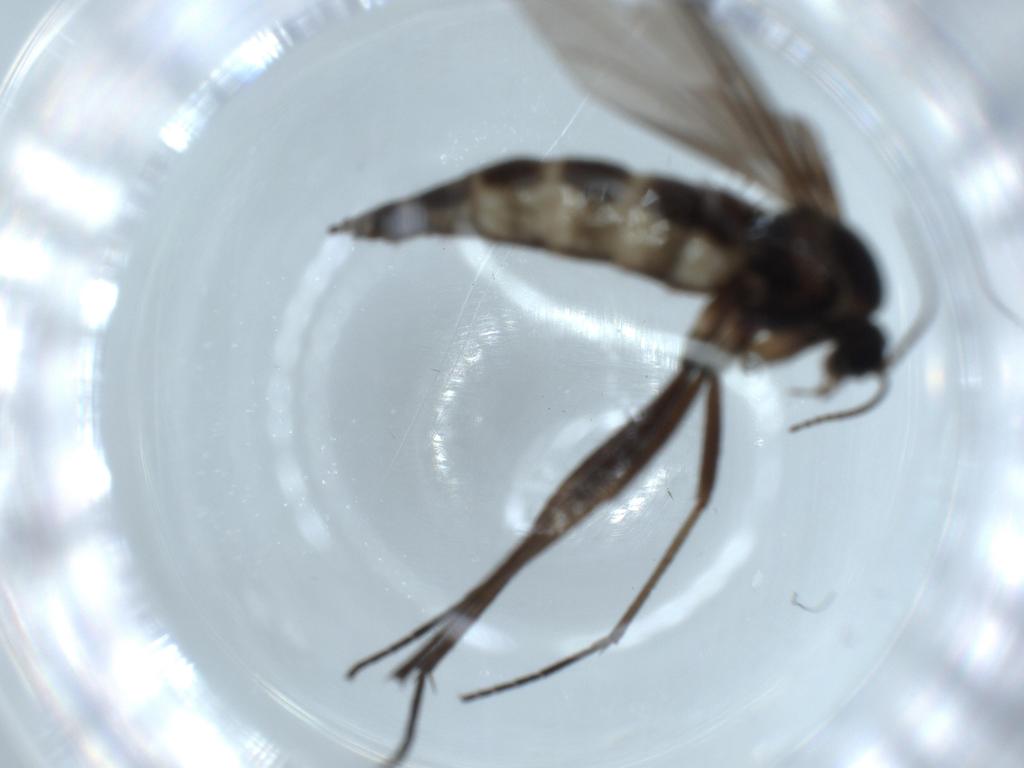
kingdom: Animalia
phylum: Arthropoda
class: Insecta
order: Diptera
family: Sciaridae
